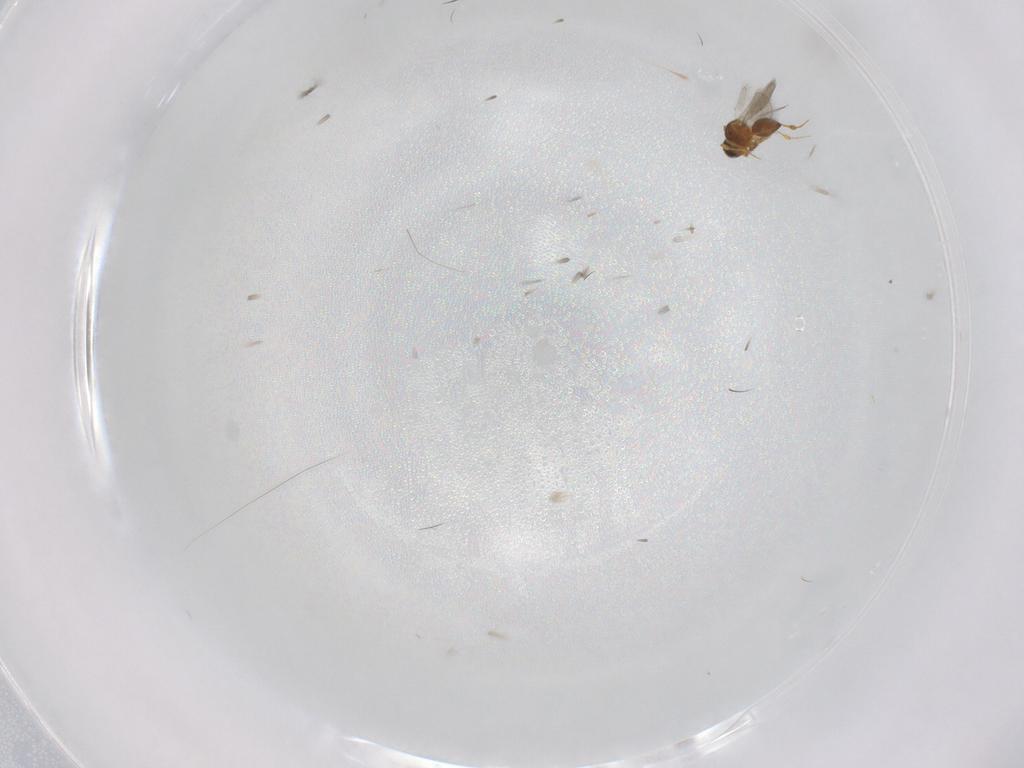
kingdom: Animalia
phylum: Arthropoda
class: Insecta
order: Hymenoptera
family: Platygastridae
